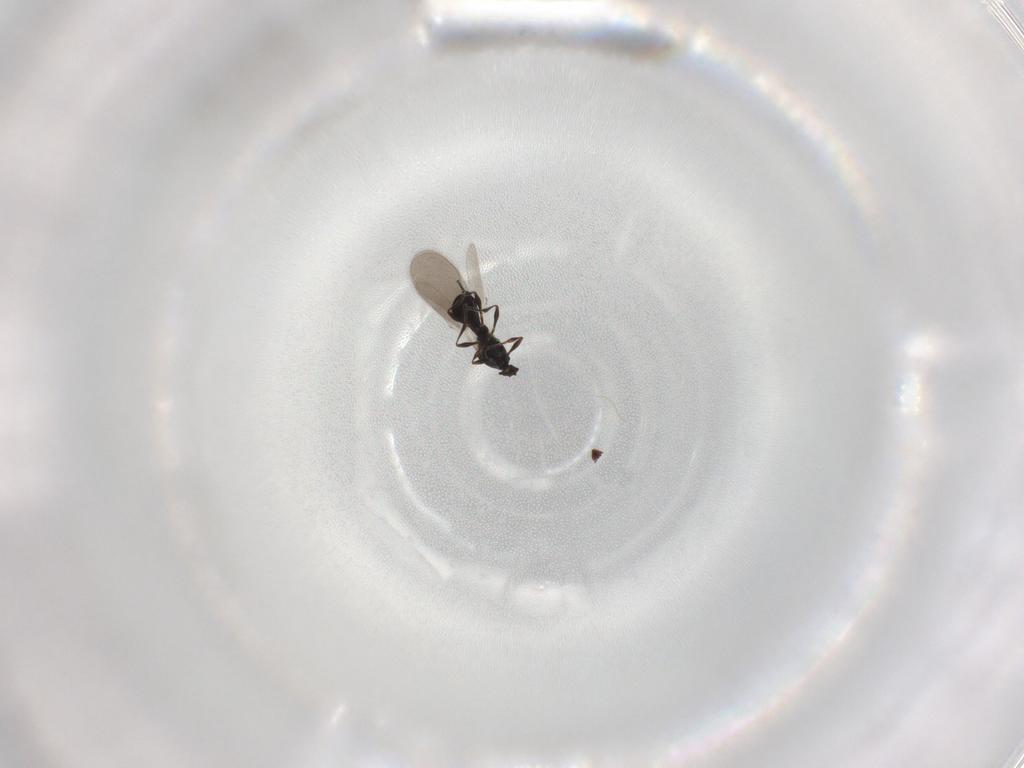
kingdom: Animalia
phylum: Arthropoda
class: Insecta
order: Hymenoptera
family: Platygastridae
